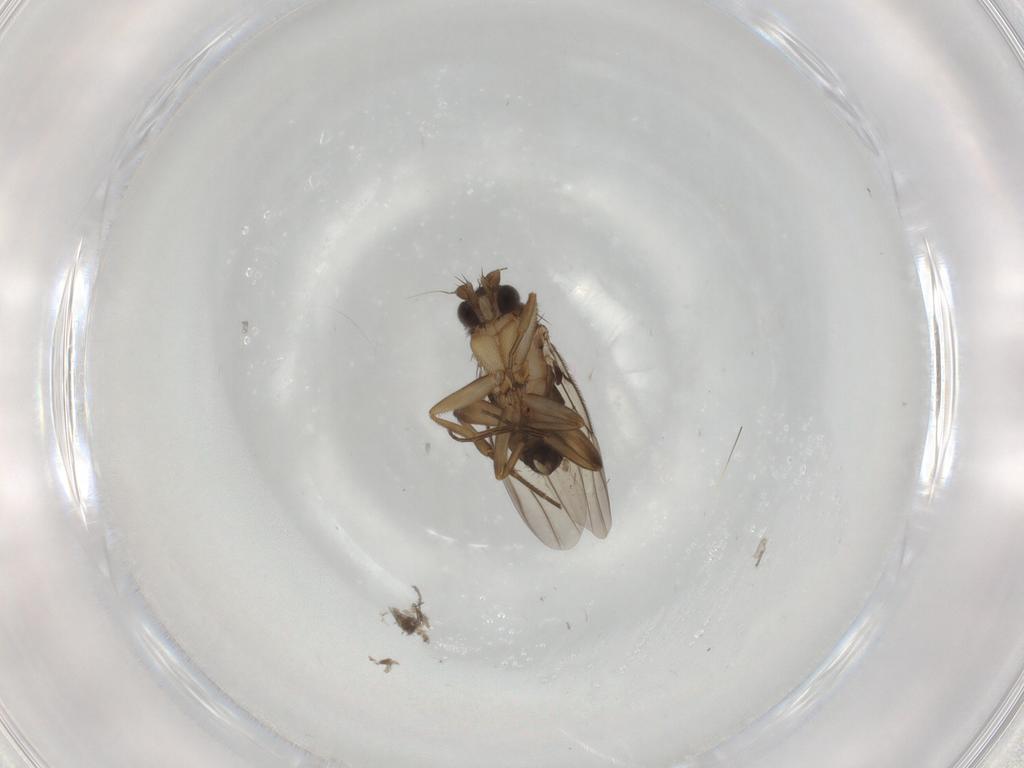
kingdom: Animalia
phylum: Arthropoda
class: Insecta
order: Diptera
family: Phoridae
